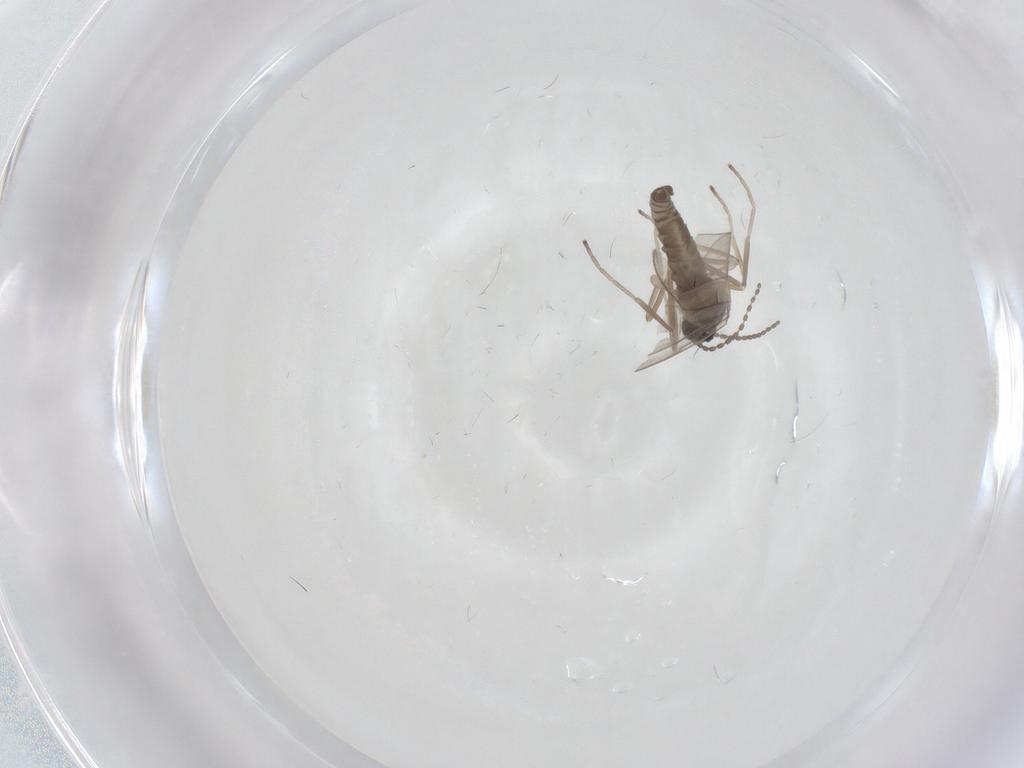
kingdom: Animalia
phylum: Arthropoda
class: Insecta
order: Diptera
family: Cecidomyiidae
